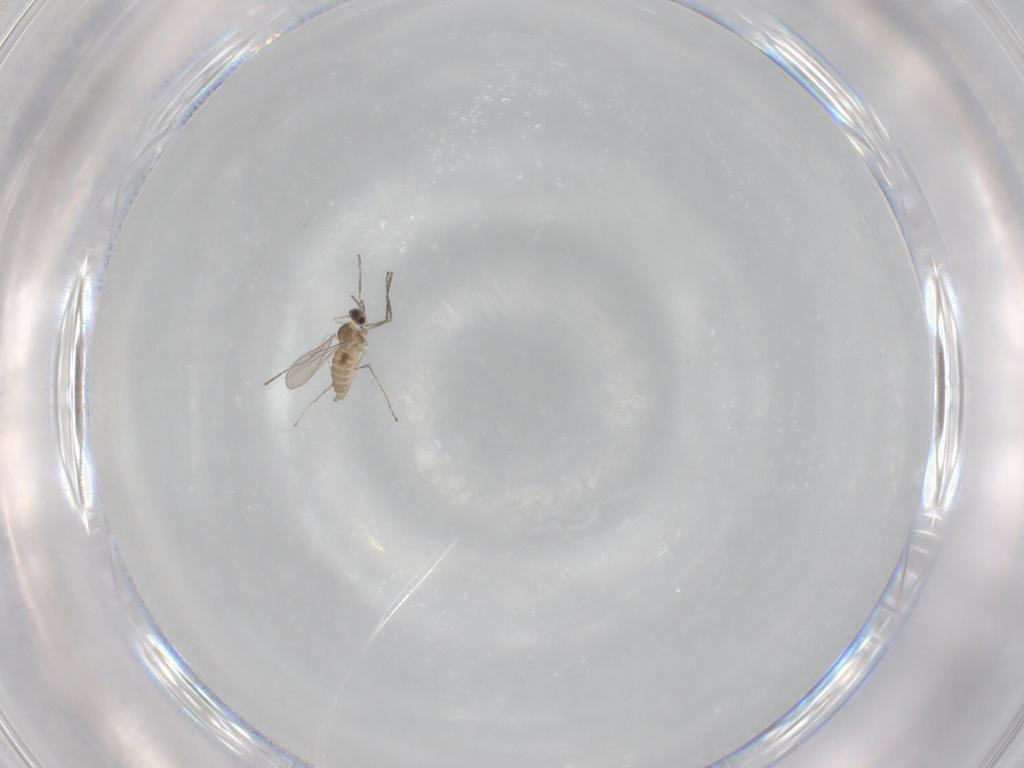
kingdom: Animalia
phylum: Arthropoda
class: Insecta
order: Diptera
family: Cecidomyiidae
